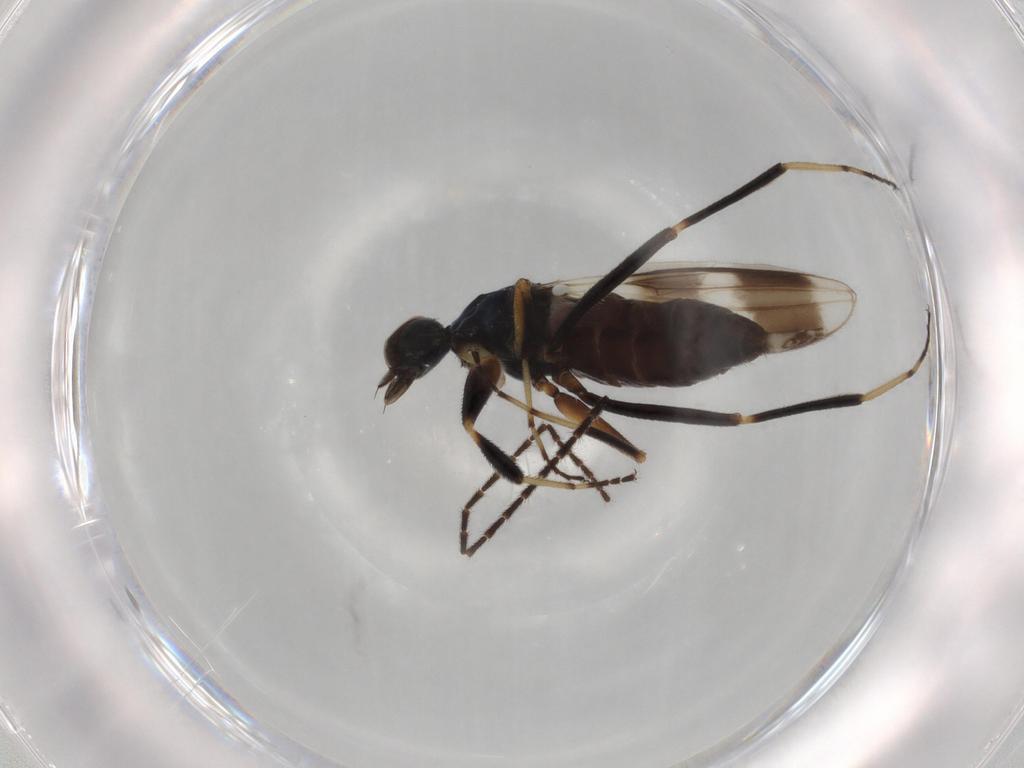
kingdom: Animalia
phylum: Arthropoda
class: Insecta
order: Diptera
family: Hybotidae
